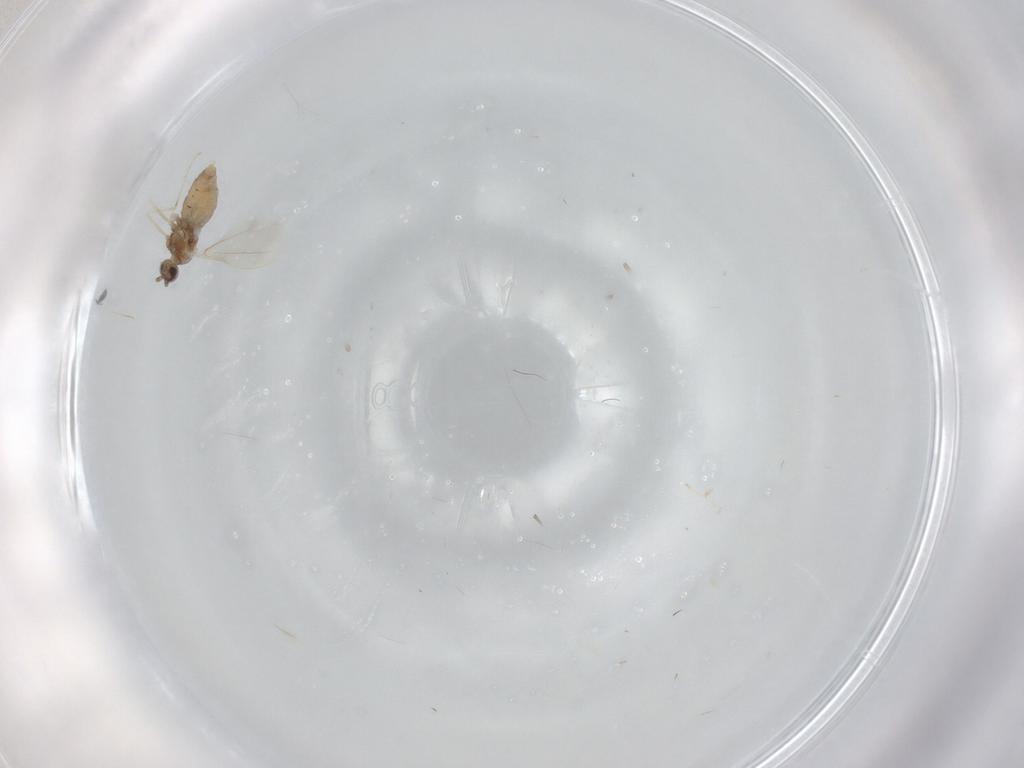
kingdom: Animalia
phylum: Arthropoda
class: Insecta
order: Diptera
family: Cecidomyiidae
